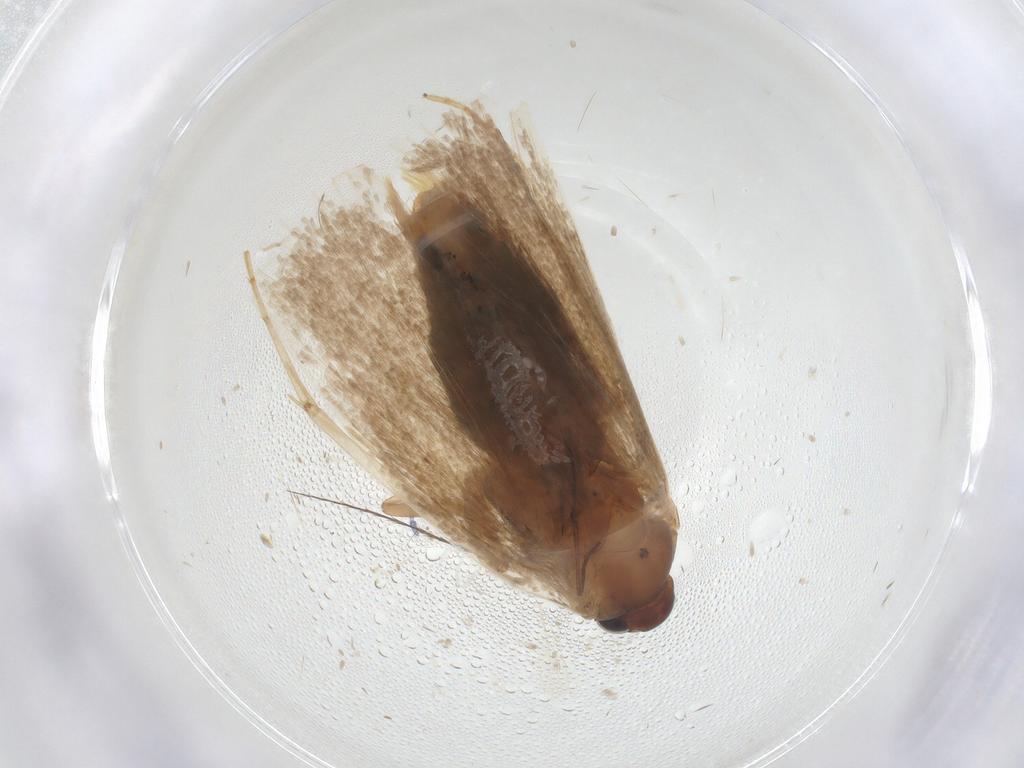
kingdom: Animalia
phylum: Arthropoda
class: Insecta
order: Lepidoptera
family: Erebidae
